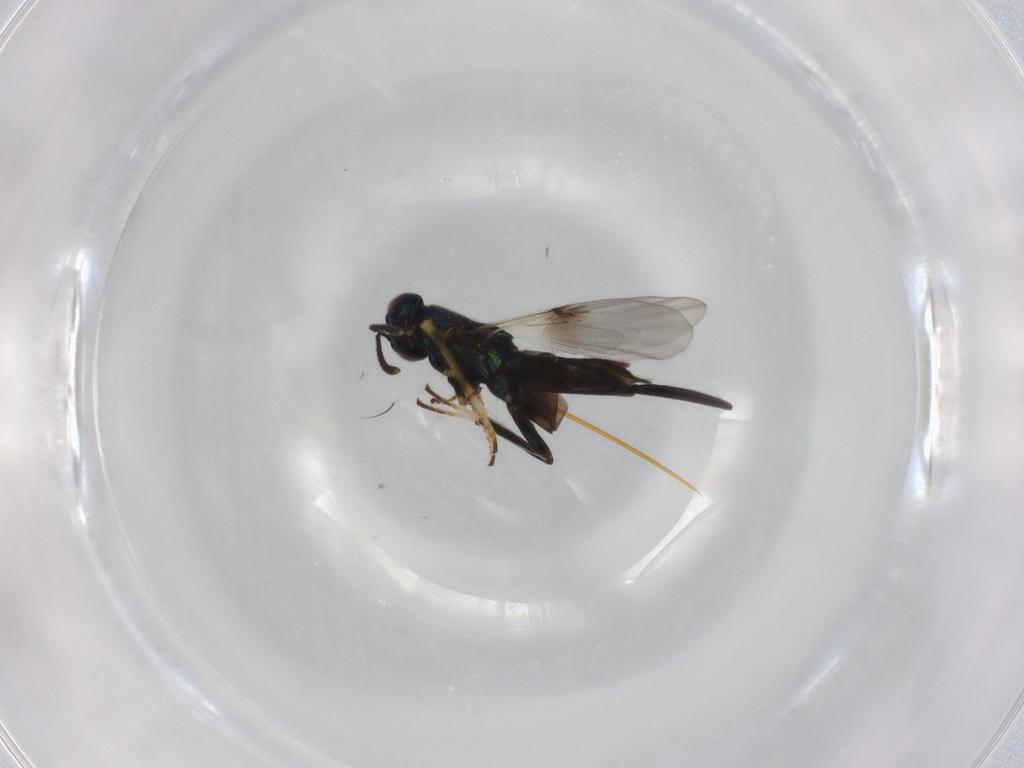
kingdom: Animalia
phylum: Arthropoda
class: Insecta
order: Hymenoptera
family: Encyrtidae
